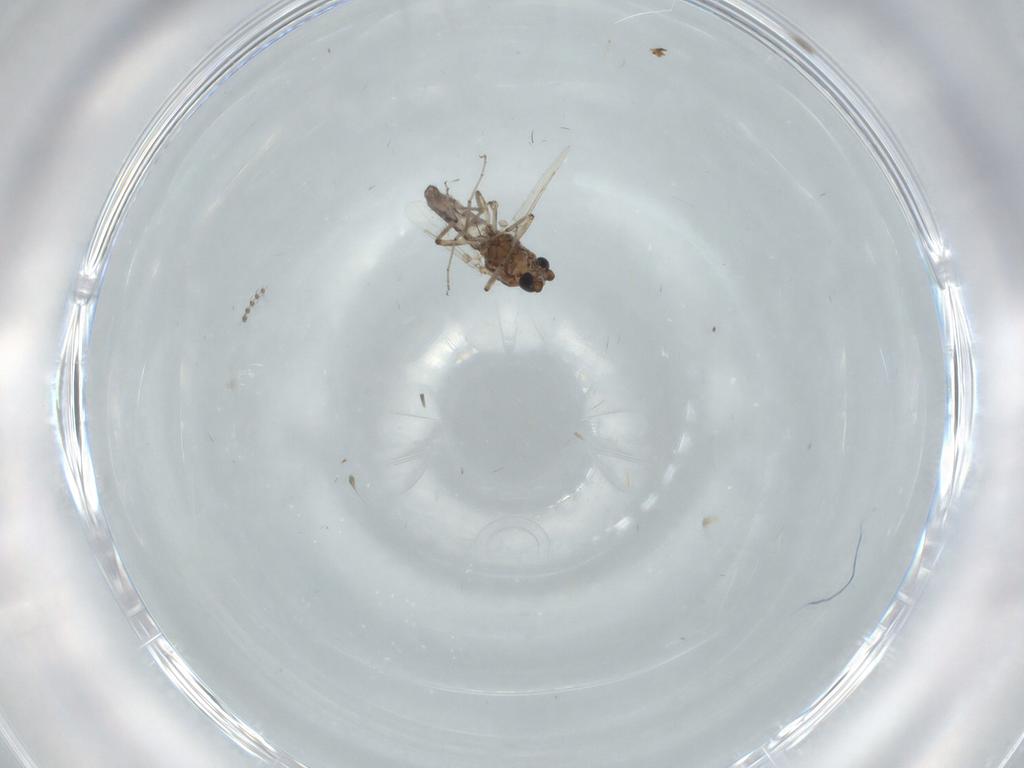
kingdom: Animalia
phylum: Arthropoda
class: Insecta
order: Diptera
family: Ceratopogonidae
